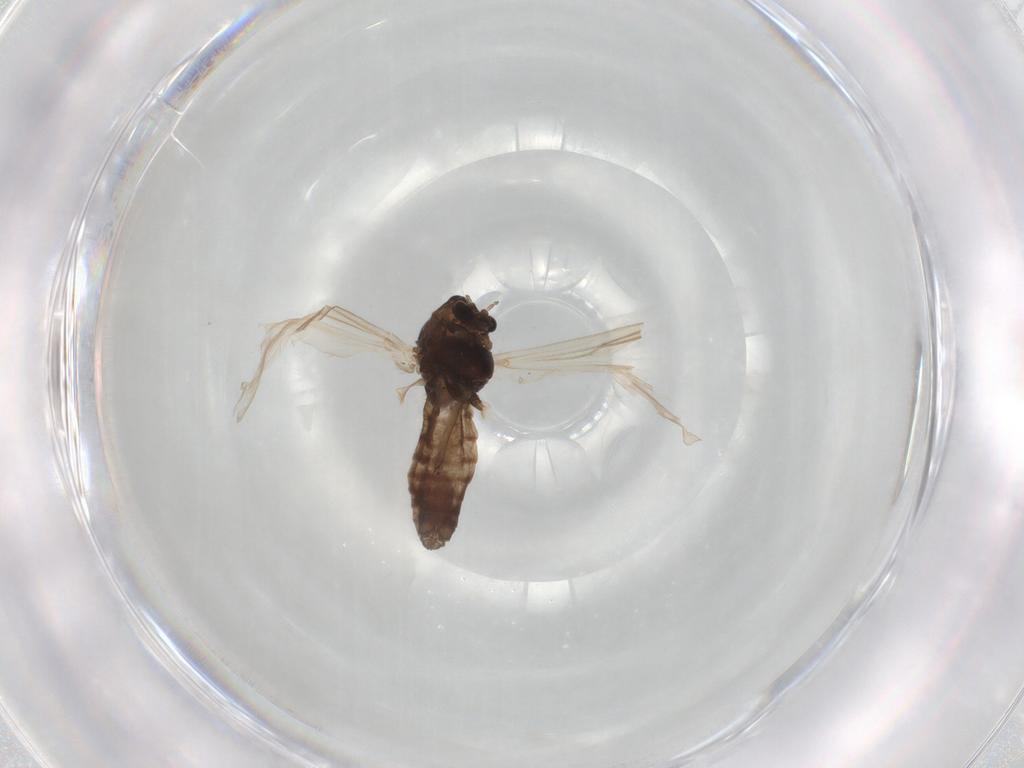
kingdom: Animalia
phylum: Arthropoda
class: Insecta
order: Diptera
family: Chironomidae
